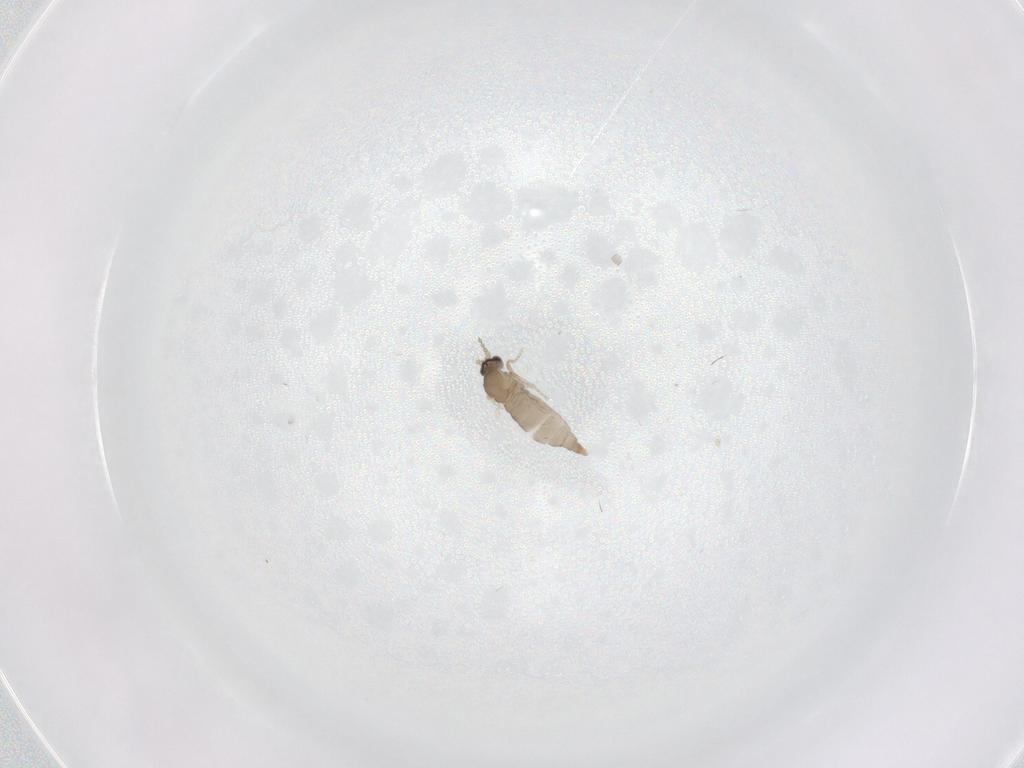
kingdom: Animalia
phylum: Arthropoda
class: Insecta
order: Diptera
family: Cecidomyiidae
